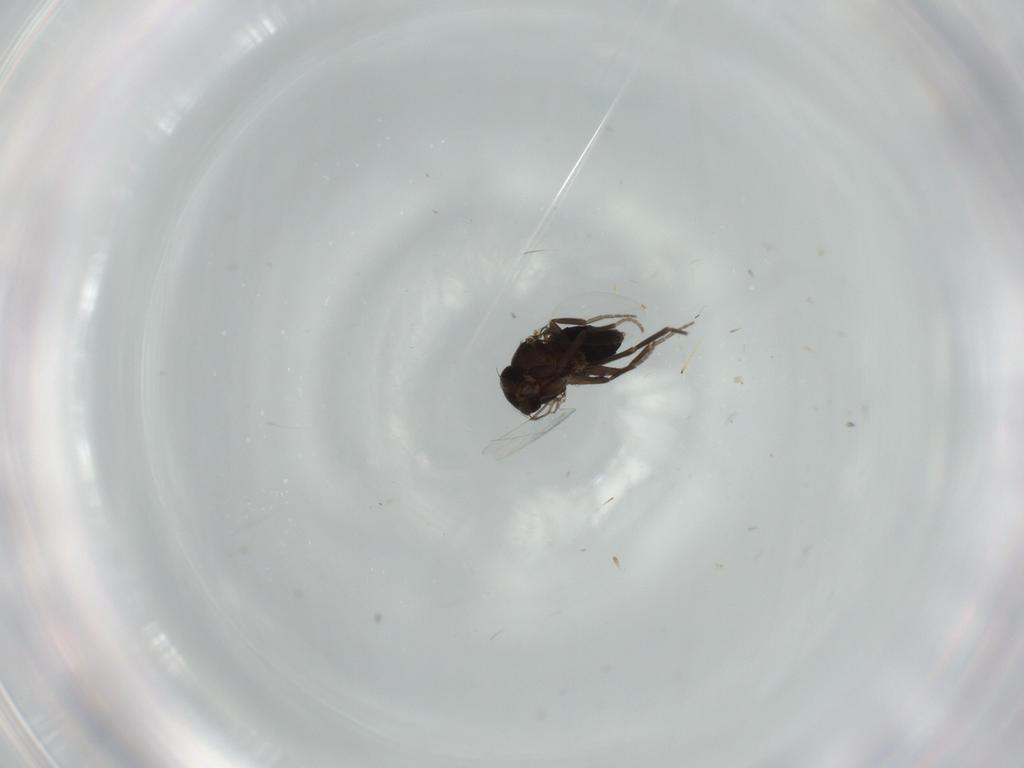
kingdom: Animalia
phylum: Arthropoda
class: Insecta
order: Diptera
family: Phoridae
